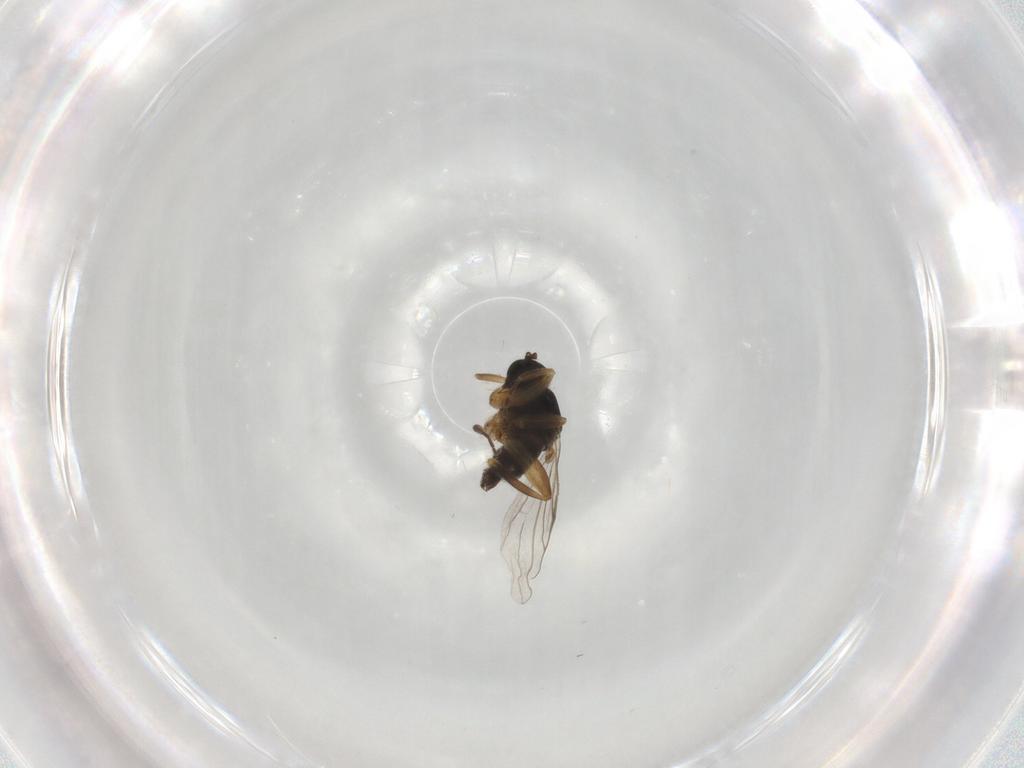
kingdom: Animalia
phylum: Arthropoda
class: Insecta
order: Diptera
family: Hybotidae
